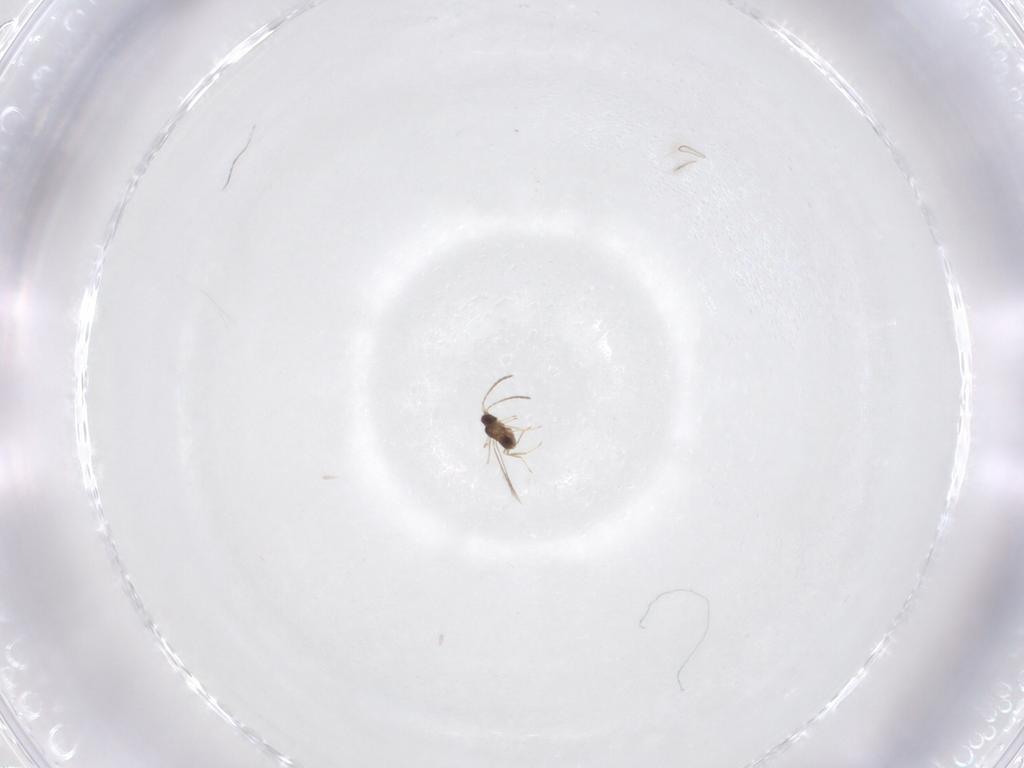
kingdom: Animalia
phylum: Arthropoda
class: Insecta
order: Hymenoptera
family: Mymaridae
